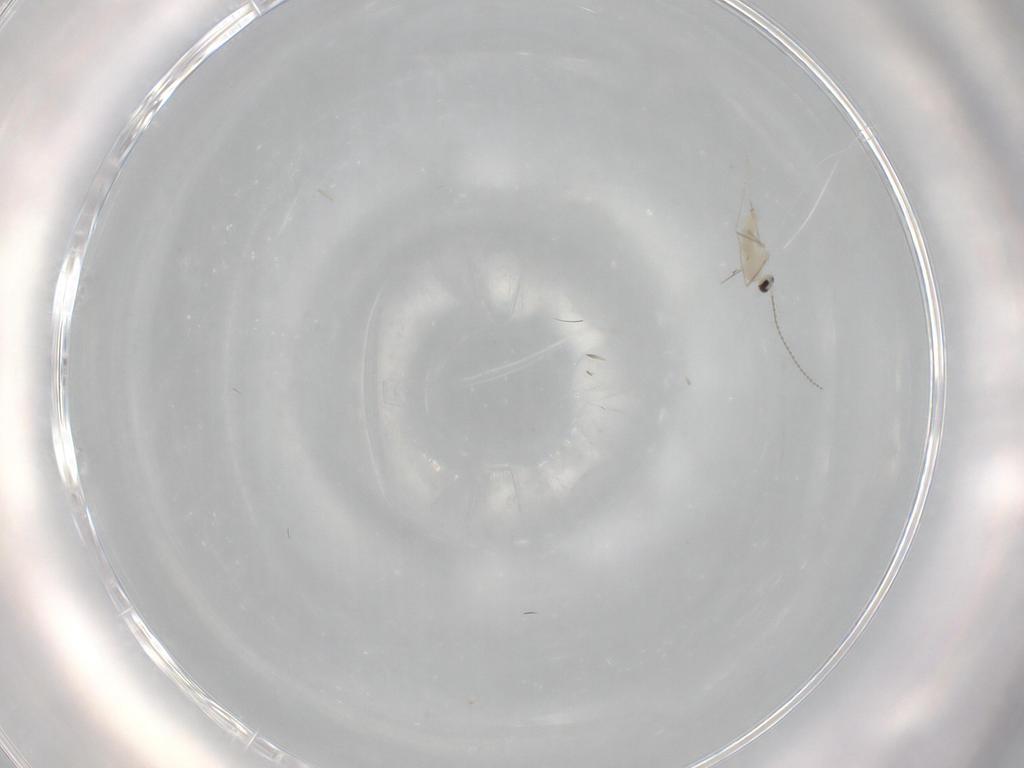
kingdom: Animalia
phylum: Arthropoda
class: Insecta
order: Diptera
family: Cecidomyiidae
